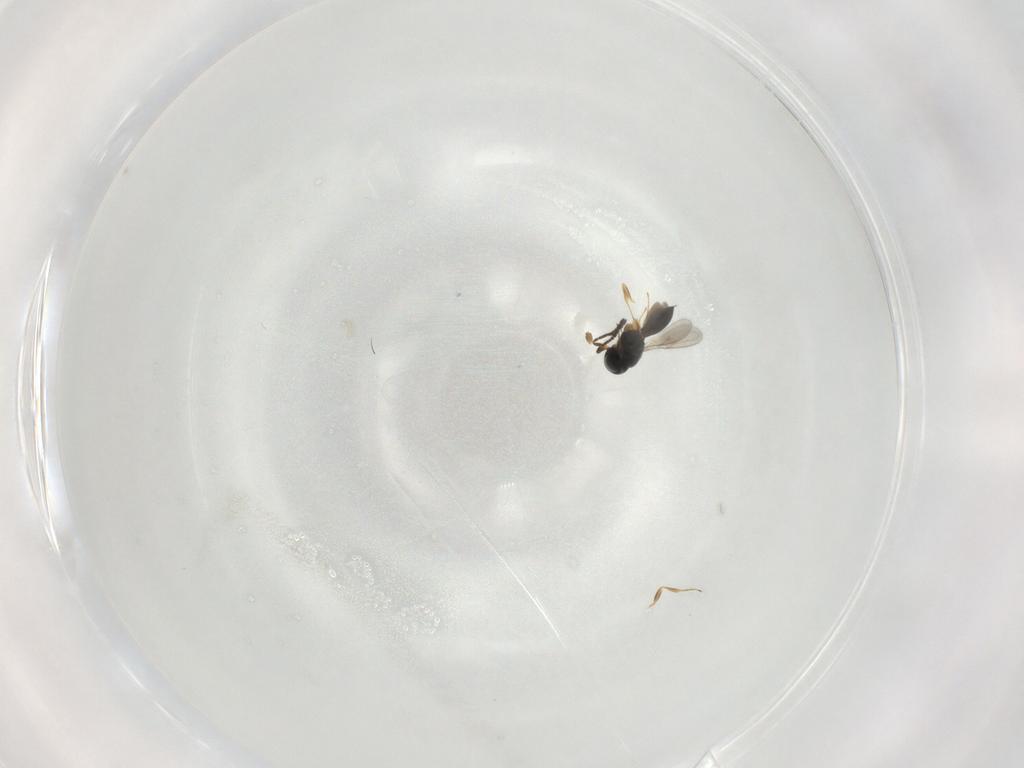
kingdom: Animalia
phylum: Arthropoda
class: Insecta
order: Hymenoptera
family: Scelionidae
